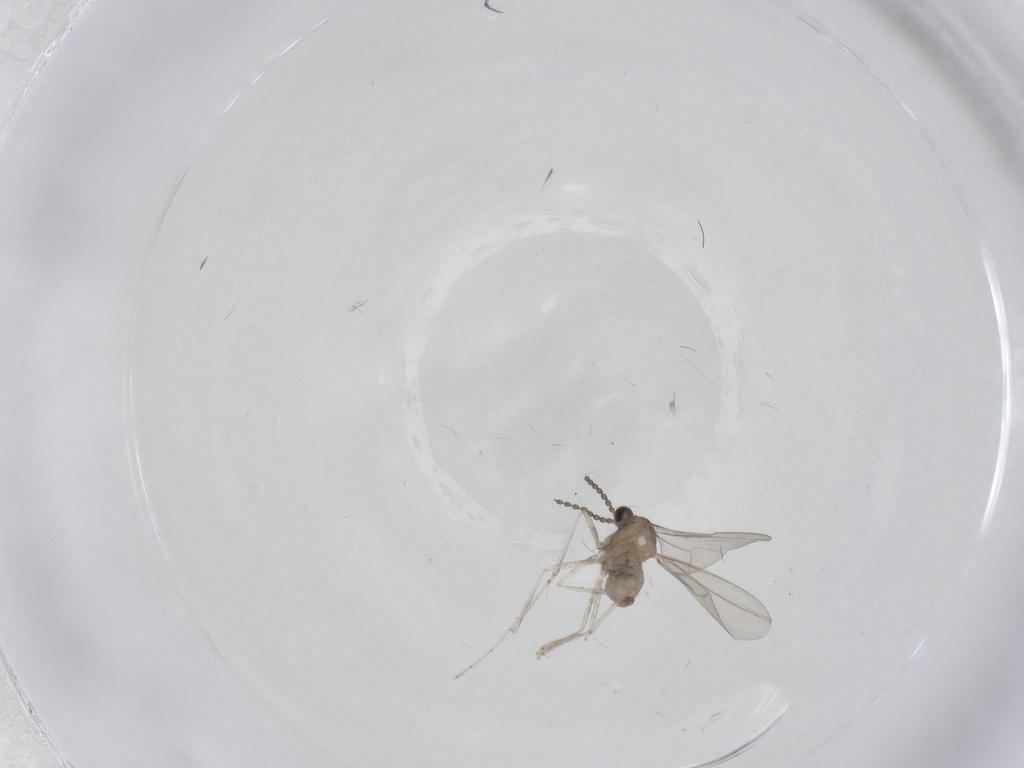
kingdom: Animalia
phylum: Arthropoda
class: Insecta
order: Diptera
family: Cecidomyiidae
